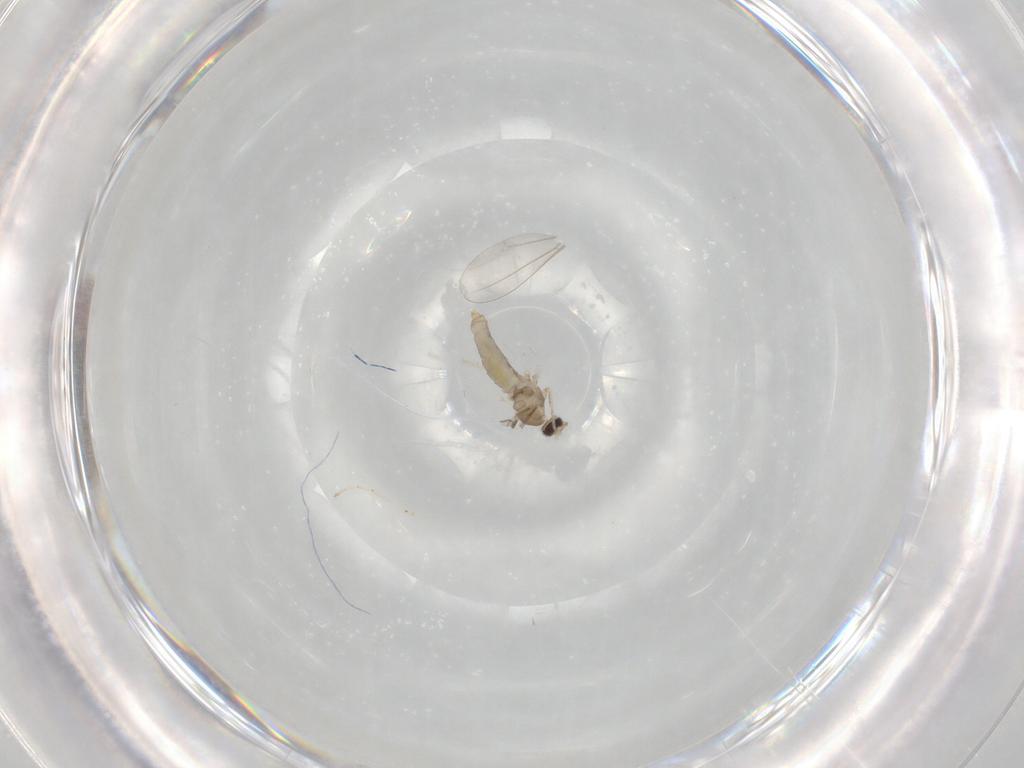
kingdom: Animalia
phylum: Arthropoda
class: Insecta
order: Diptera
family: Cecidomyiidae
